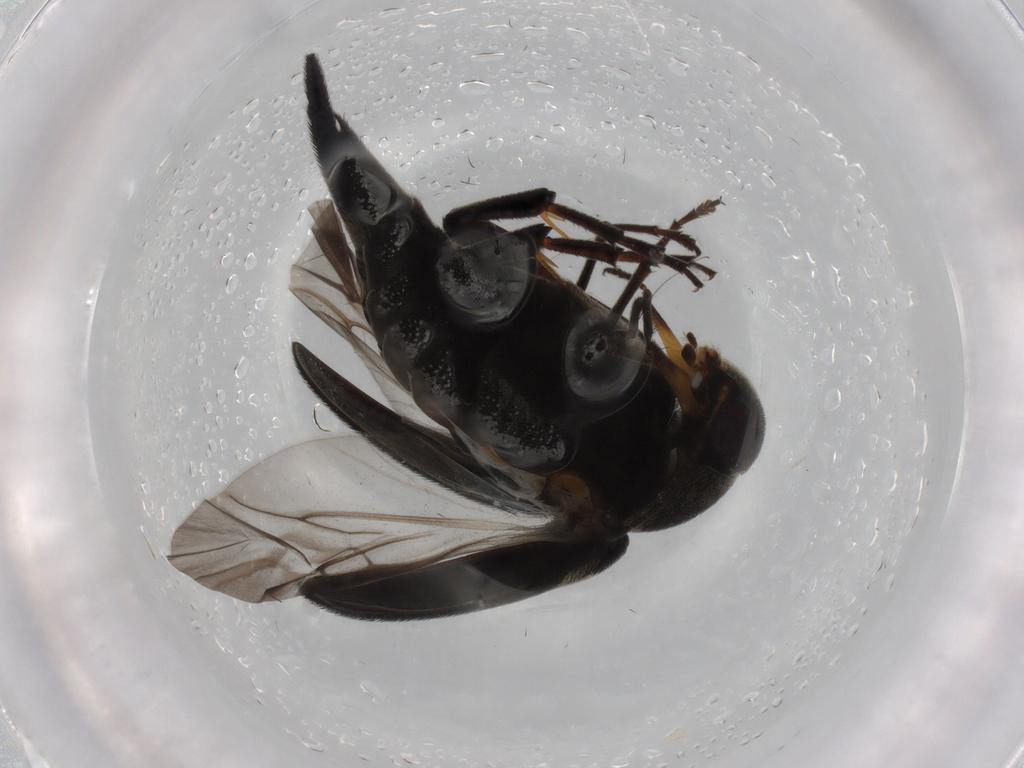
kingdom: Animalia
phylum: Arthropoda
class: Insecta
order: Coleoptera
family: Mordellidae
